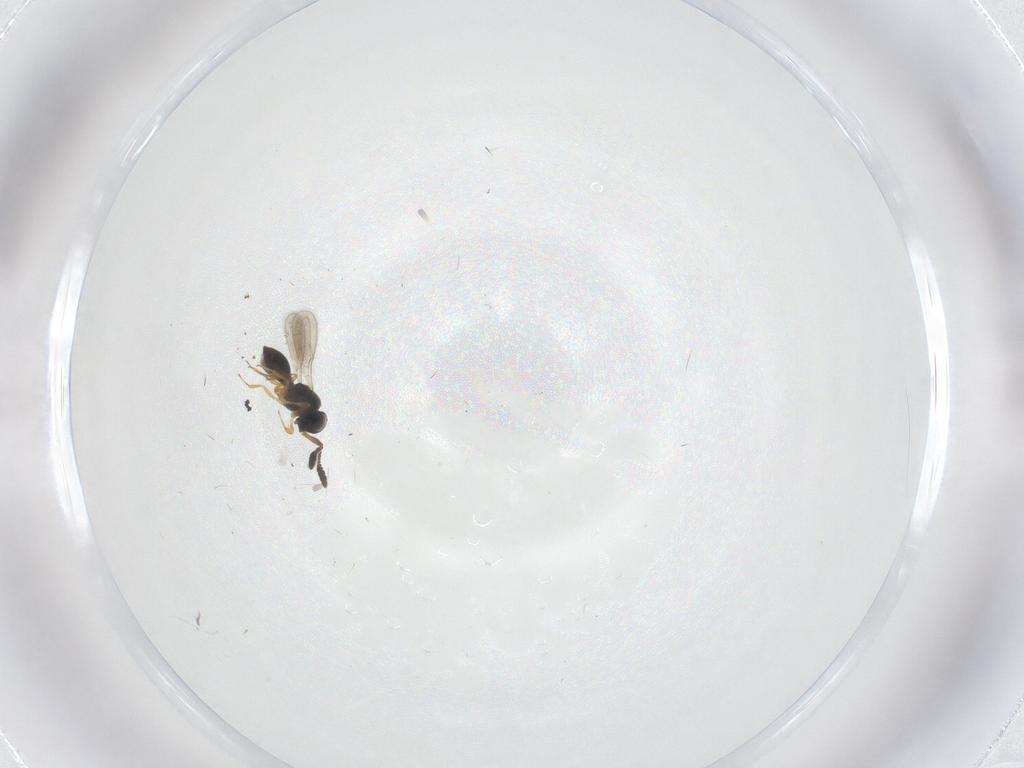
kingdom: Animalia
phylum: Arthropoda
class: Insecta
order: Hymenoptera
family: Scelionidae
